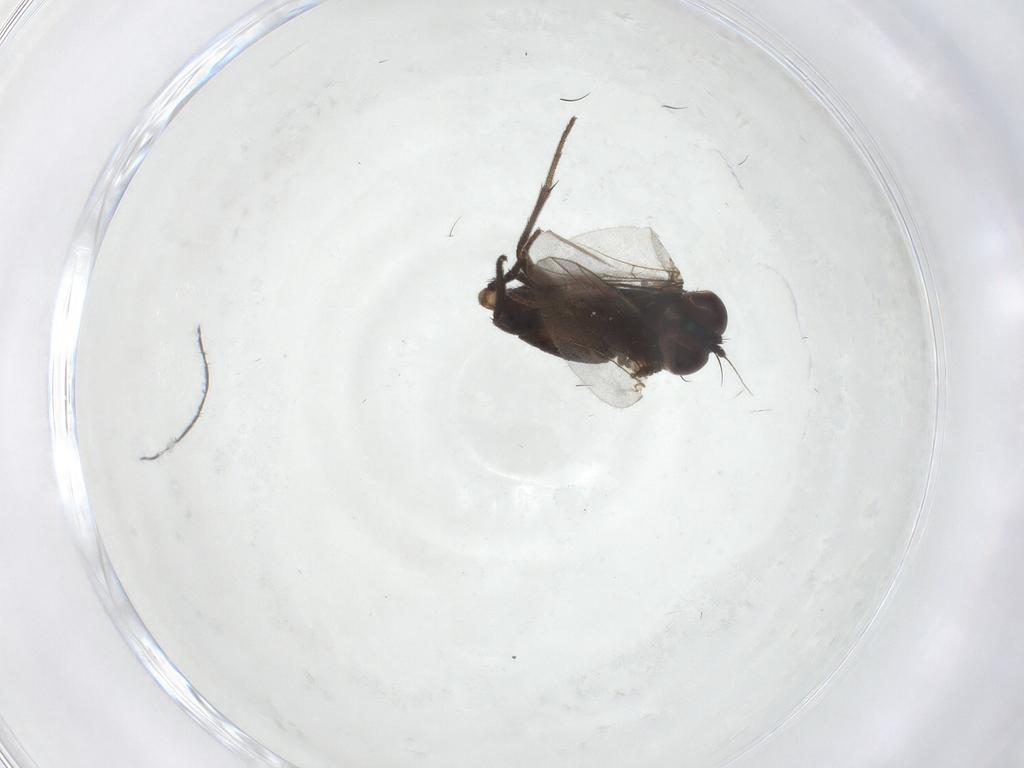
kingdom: Animalia
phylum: Arthropoda
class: Insecta
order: Diptera
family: Dolichopodidae
